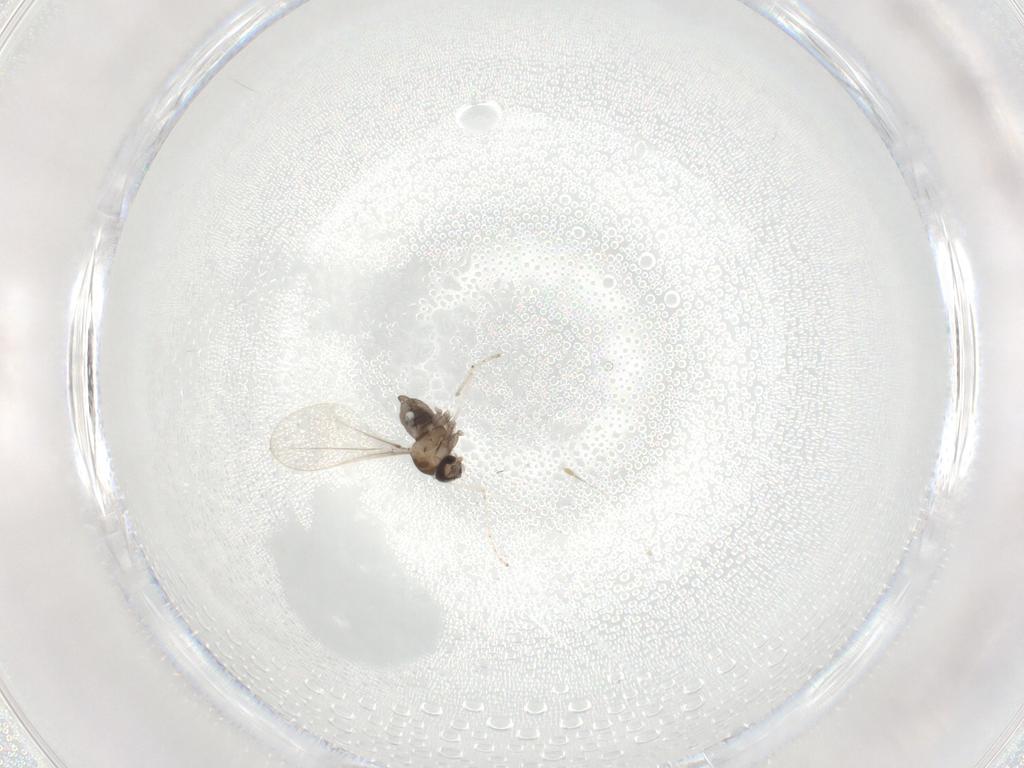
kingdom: Animalia
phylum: Arthropoda
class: Insecta
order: Diptera
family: Cecidomyiidae
